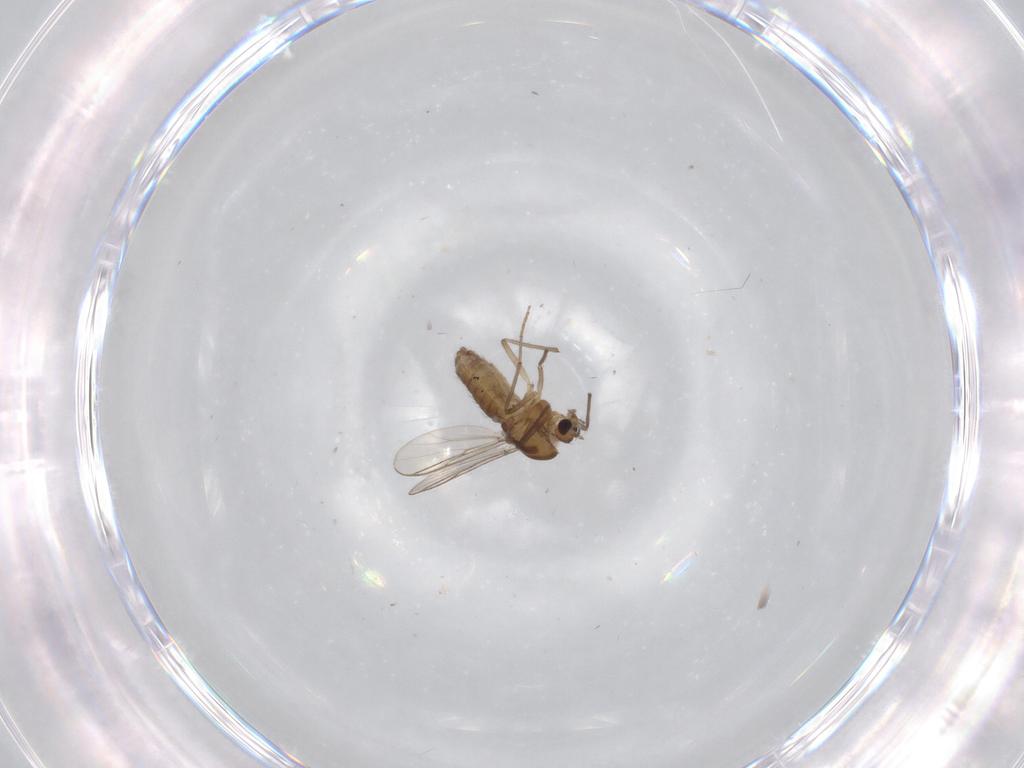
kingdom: Animalia
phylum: Arthropoda
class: Insecta
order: Diptera
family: Chironomidae
